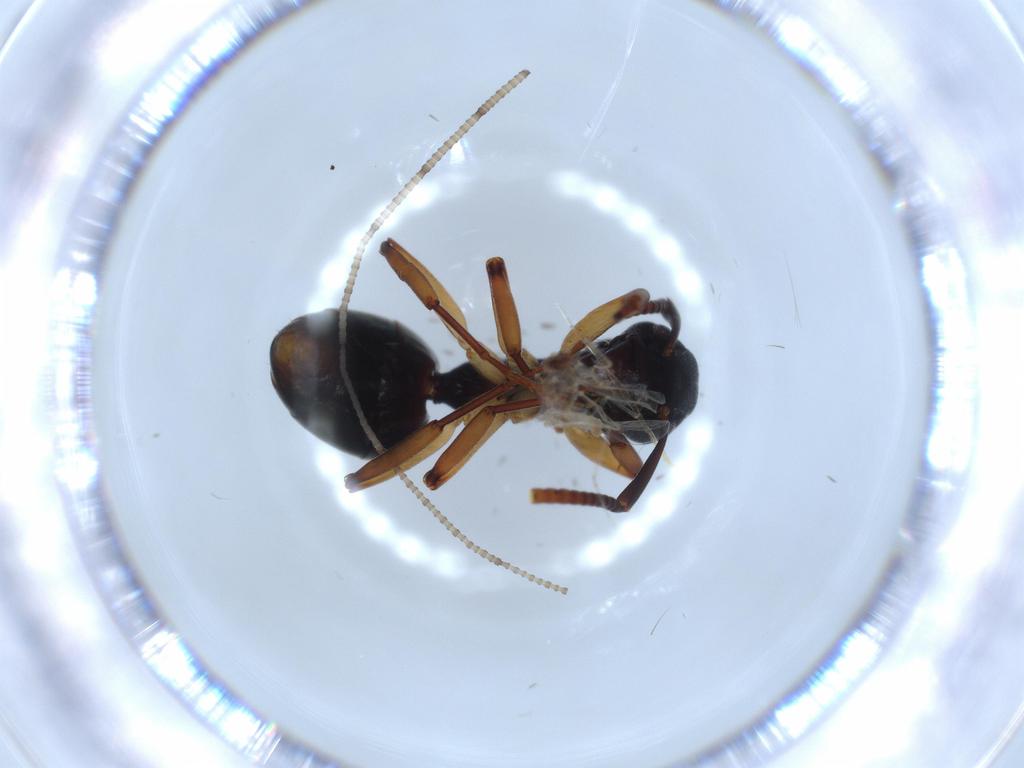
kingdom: Animalia
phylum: Arthropoda
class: Insecta
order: Hymenoptera
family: Formicidae
